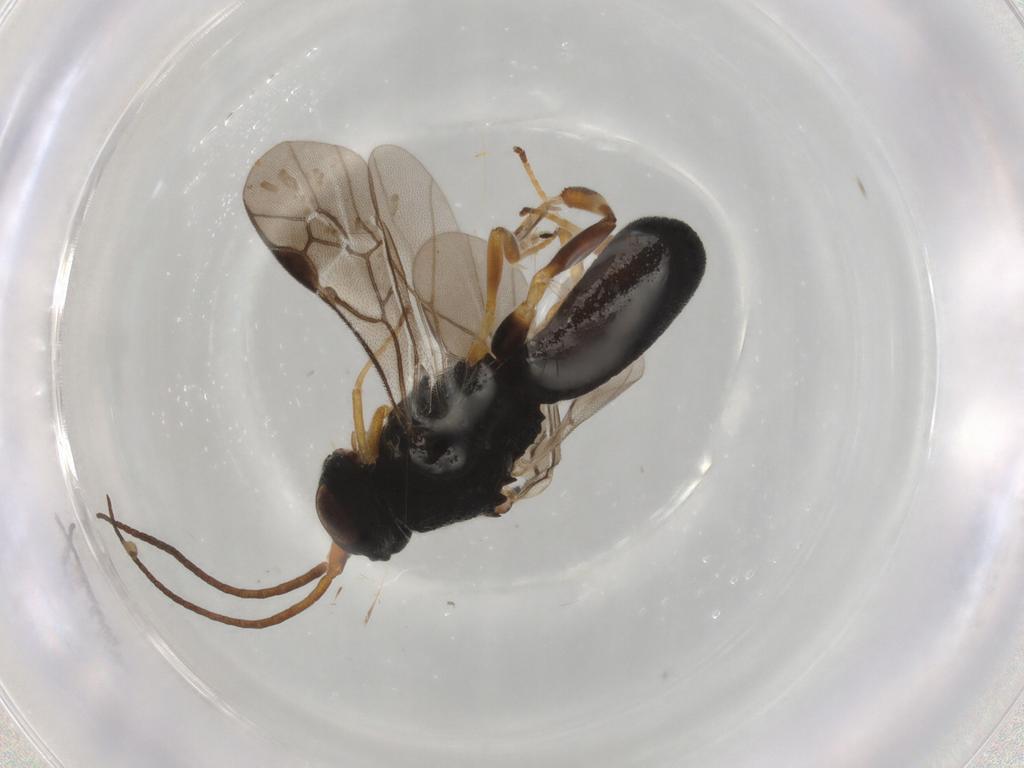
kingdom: Animalia
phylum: Arthropoda
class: Insecta
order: Hymenoptera
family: Braconidae
